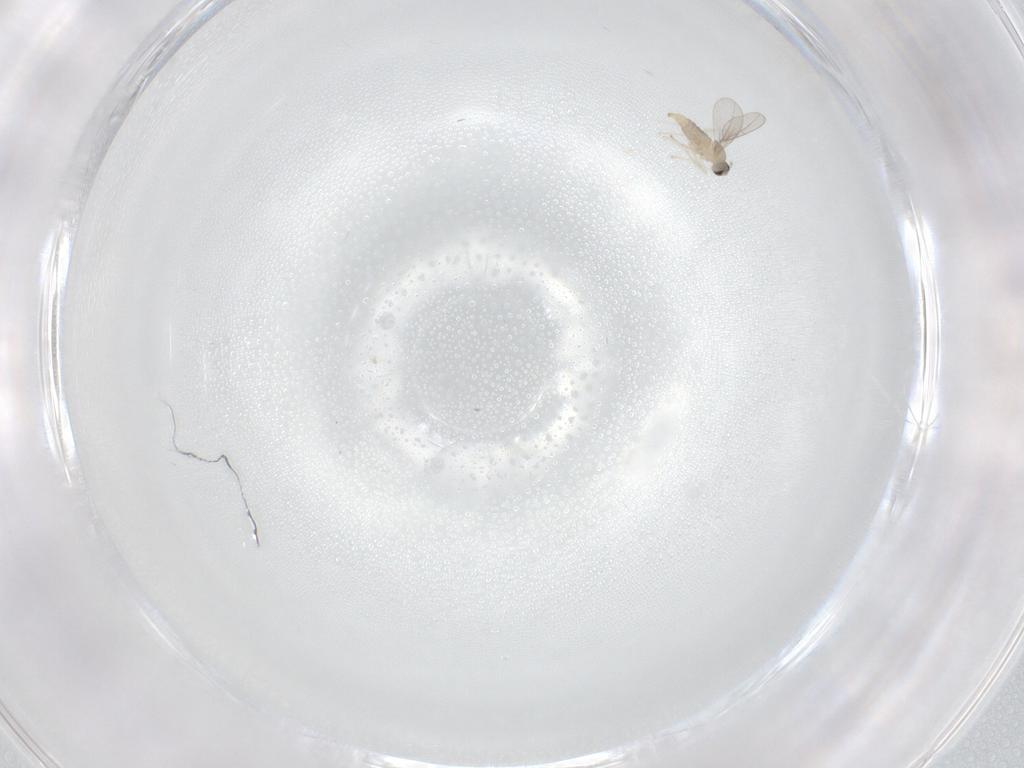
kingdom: Animalia
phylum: Arthropoda
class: Insecta
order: Diptera
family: Cecidomyiidae
